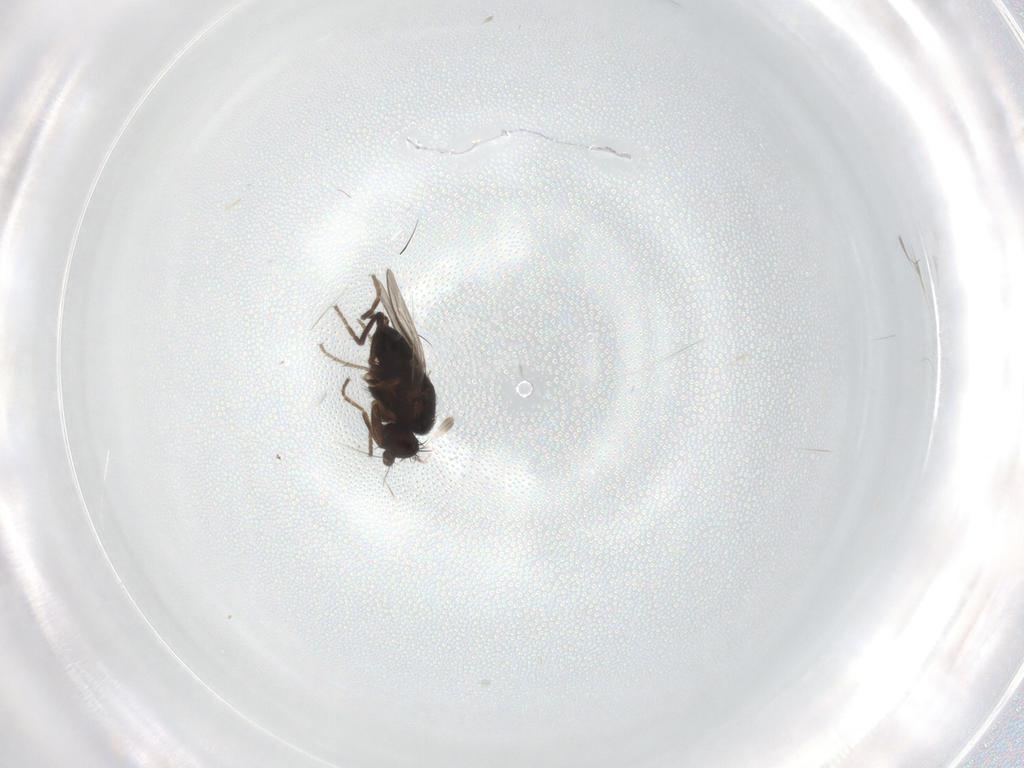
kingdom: Animalia
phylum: Arthropoda
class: Insecta
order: Diptera
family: Sphaeroceridae
